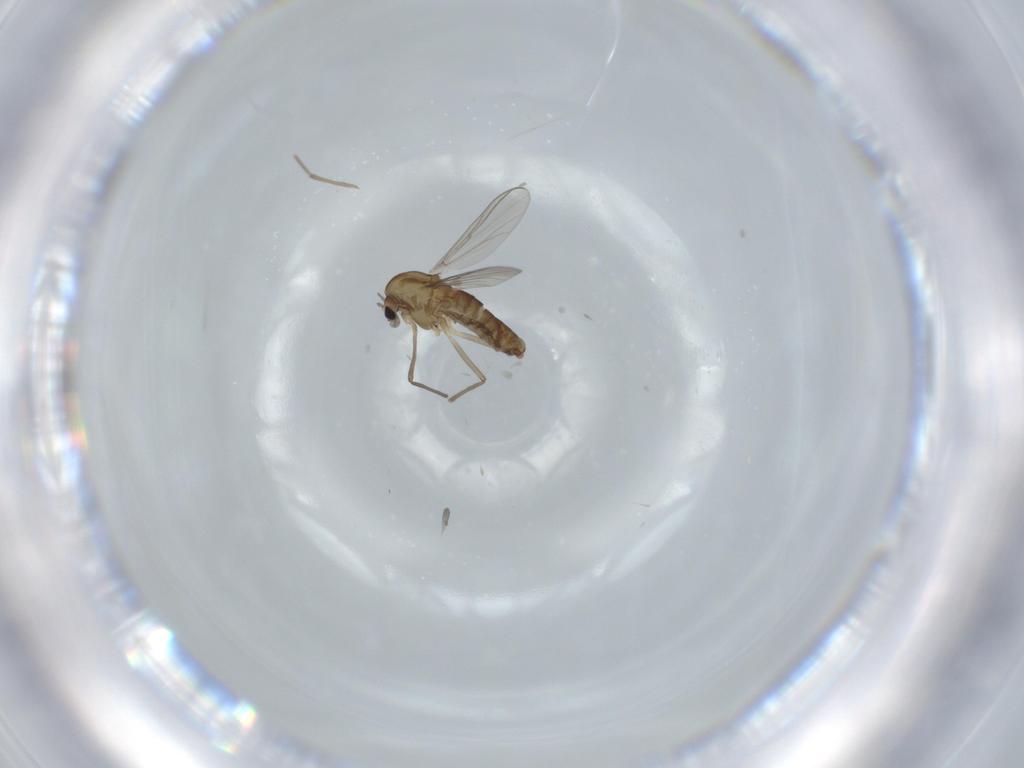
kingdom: Animalia
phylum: Arthropoda
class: Insecta
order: Diptera
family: Chironomidae
